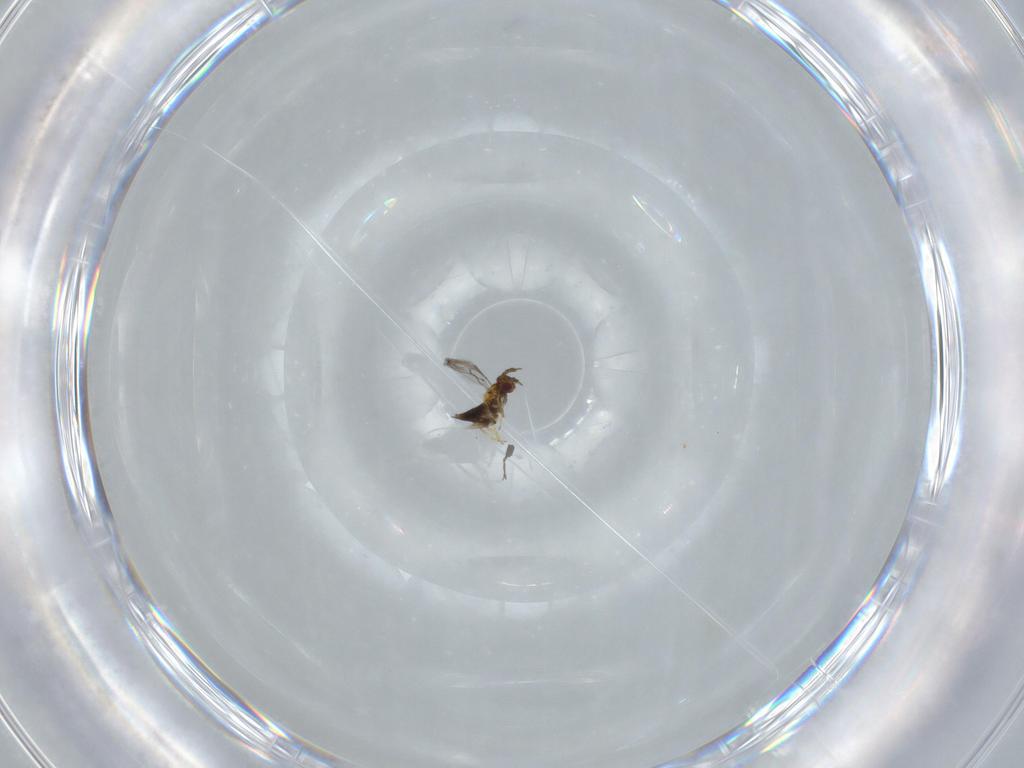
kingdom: Animalia
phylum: Arthropoda
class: Insecta
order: Hymenoptera
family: Trichogrammatidae
